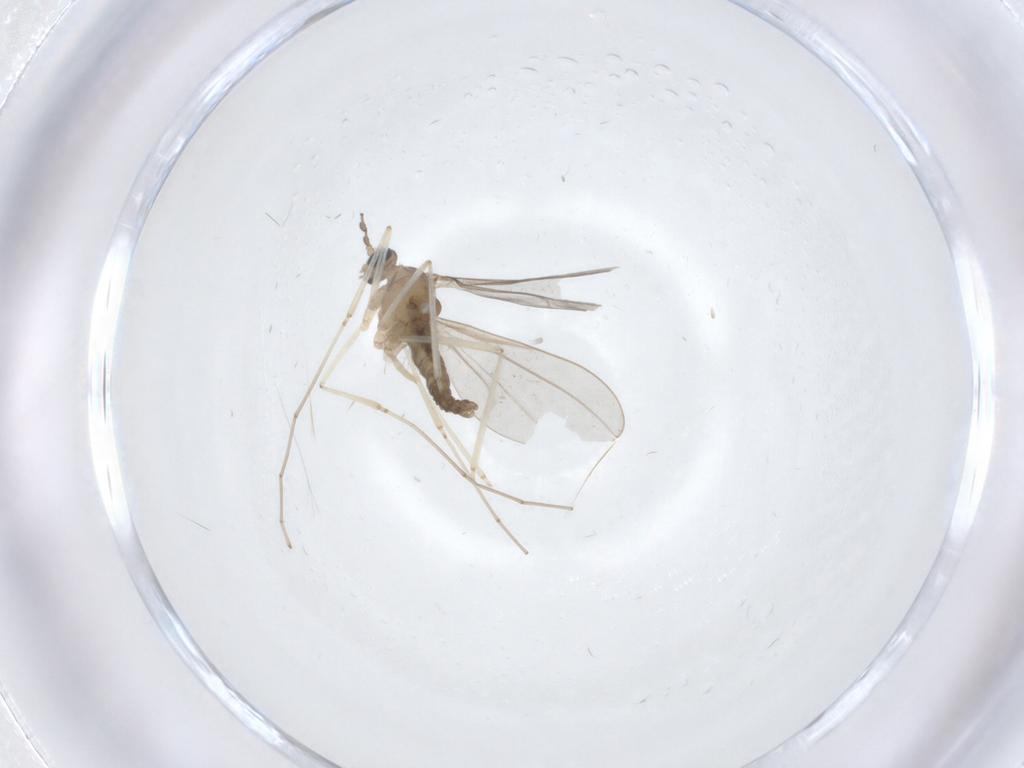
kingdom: Animalia
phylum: Arthropoda
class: Insecta
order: Diptera
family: Cecidomyiidae
